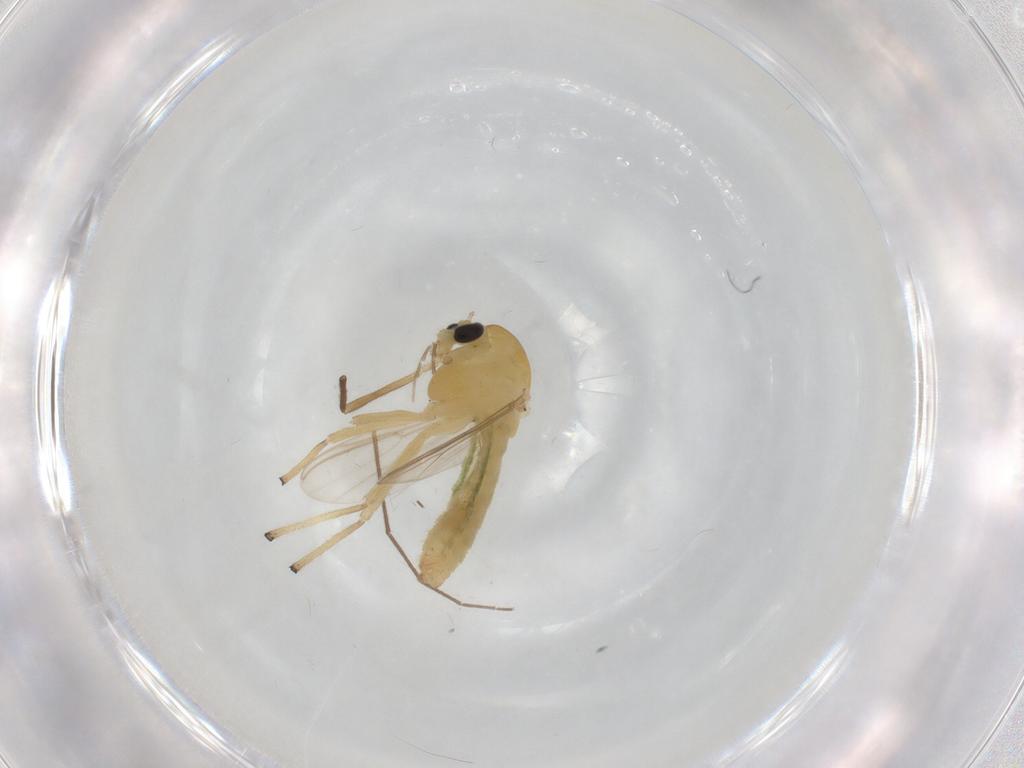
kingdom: Animalia
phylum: Arthropoda
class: Insecta
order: Diptera
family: Chironomidae
